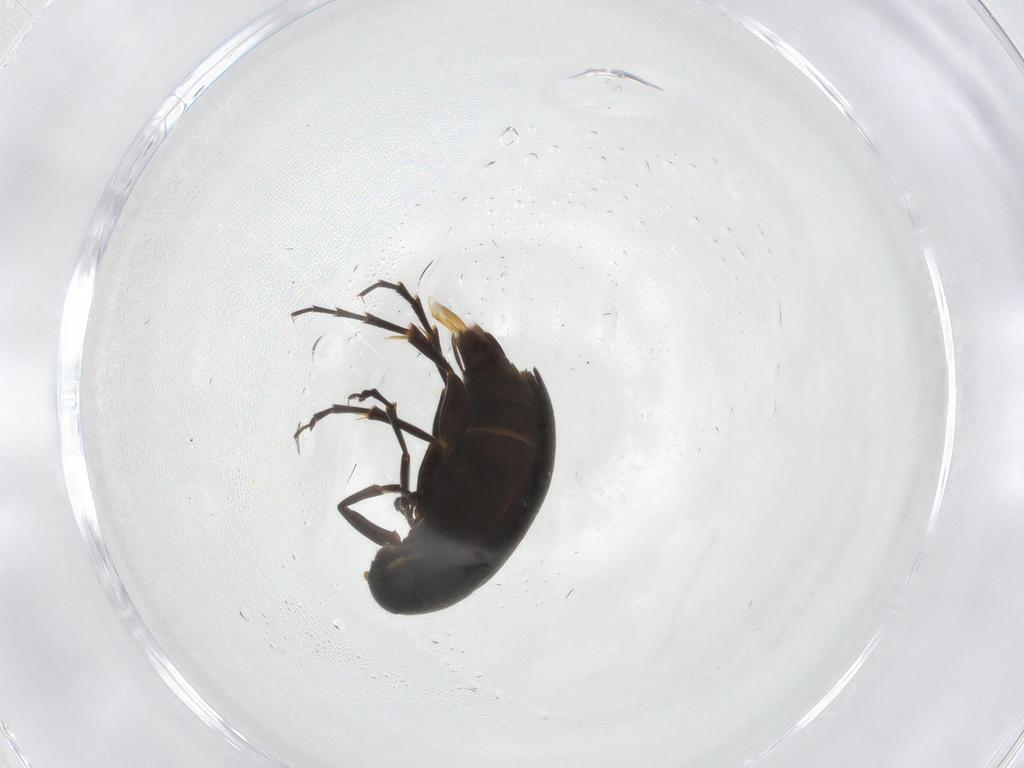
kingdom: Animalia
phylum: Arthropoda
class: Insecta
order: Coleoptera
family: Scraptiidae
